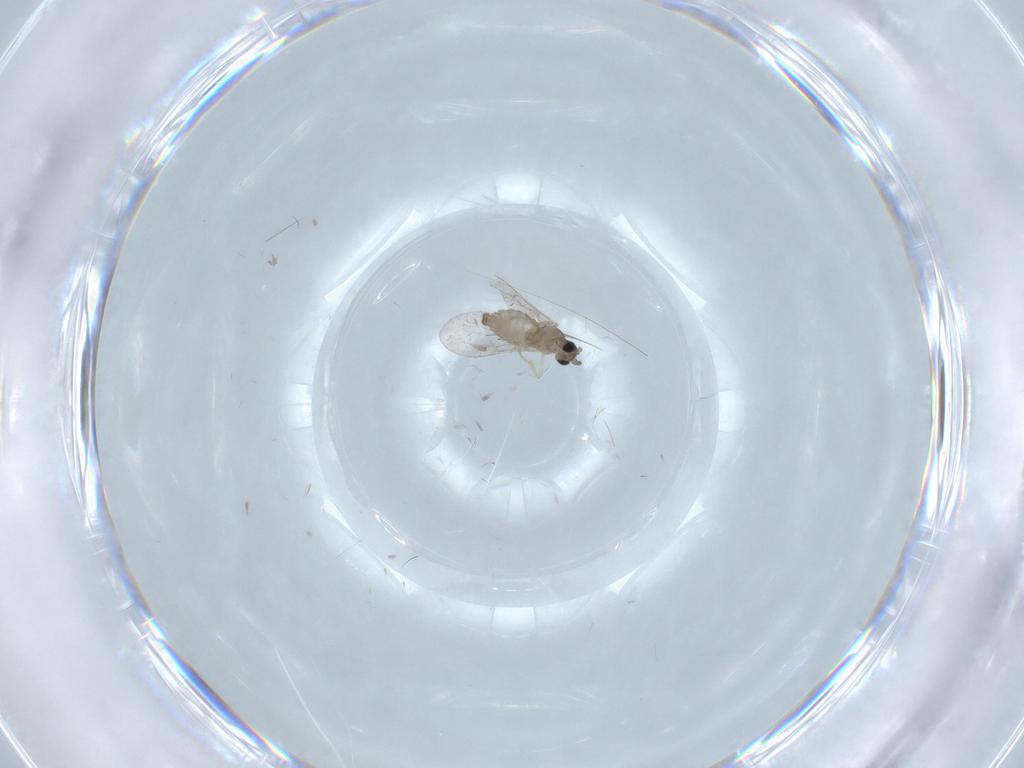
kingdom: Animalia
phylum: Arthropoda
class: Insecta
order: Diptera
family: Cecidomyiidae
